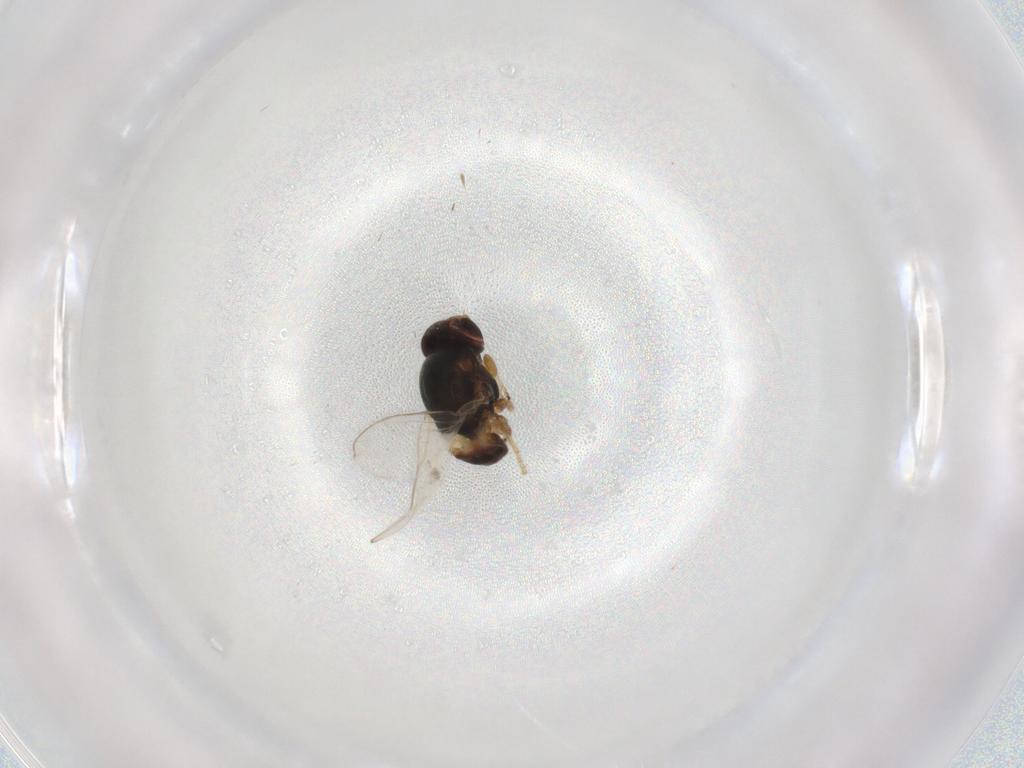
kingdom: Animalia
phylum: Arthropoda
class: Insecta
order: Diptera
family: Chloropidae
